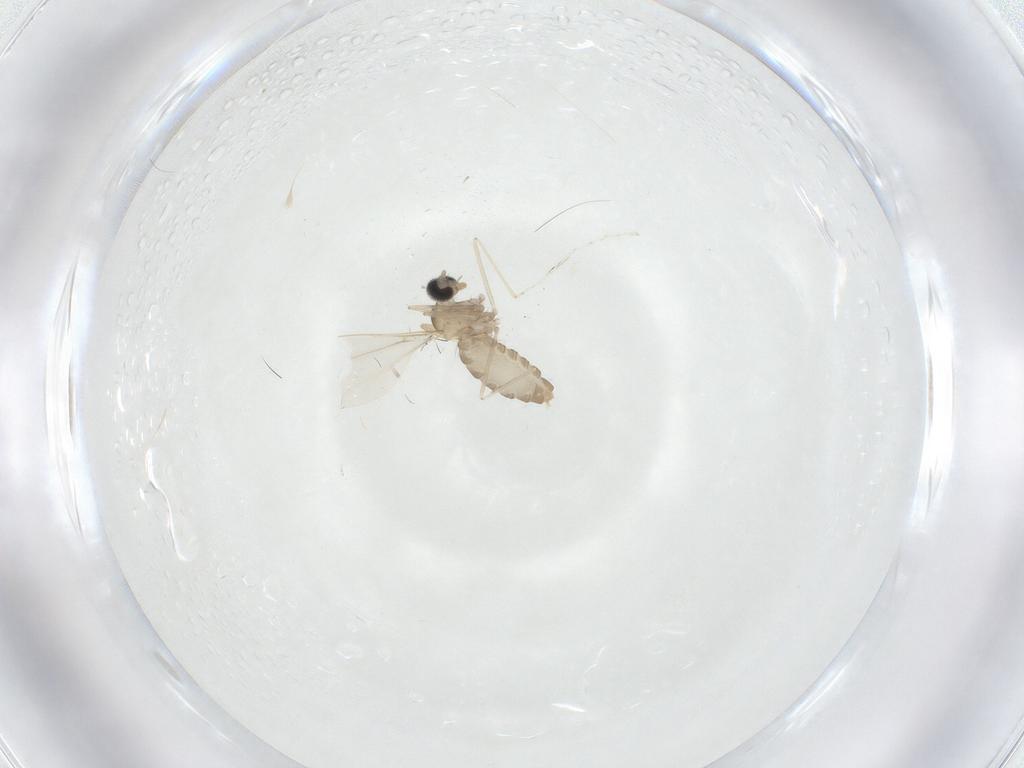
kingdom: Animalia
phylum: Arthropoda
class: Insecta
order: Diptera
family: Cecidomyiidae
